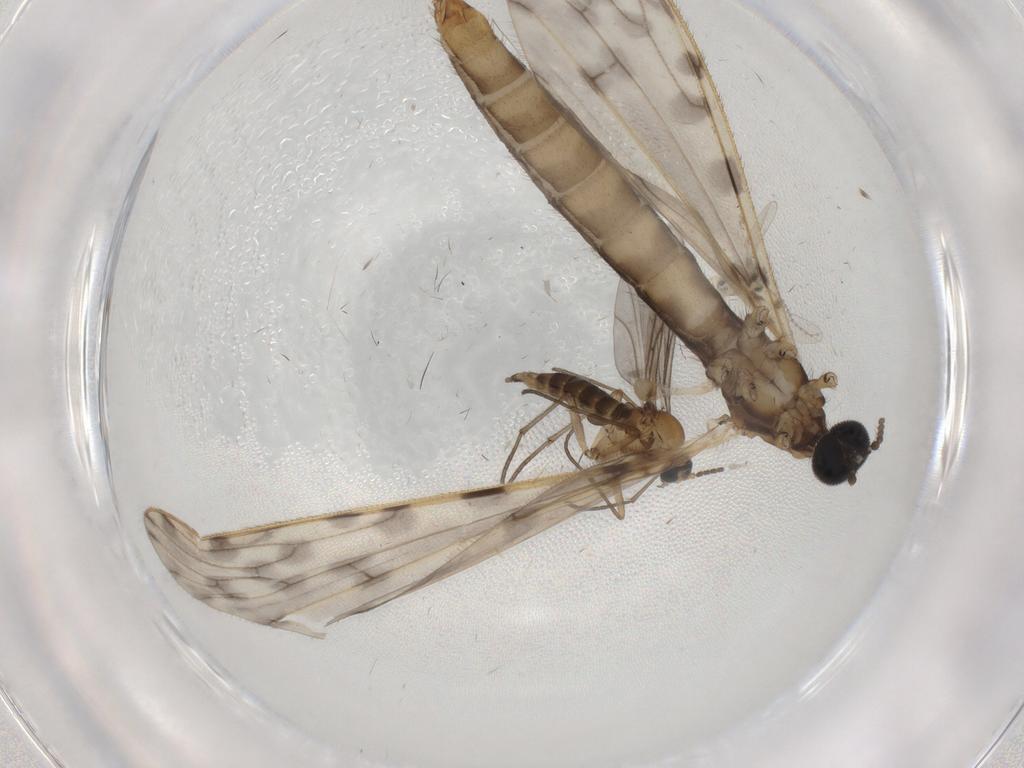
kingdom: Animalia
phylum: Arthropoda
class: Insecta
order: Diptera
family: Limoniidae
